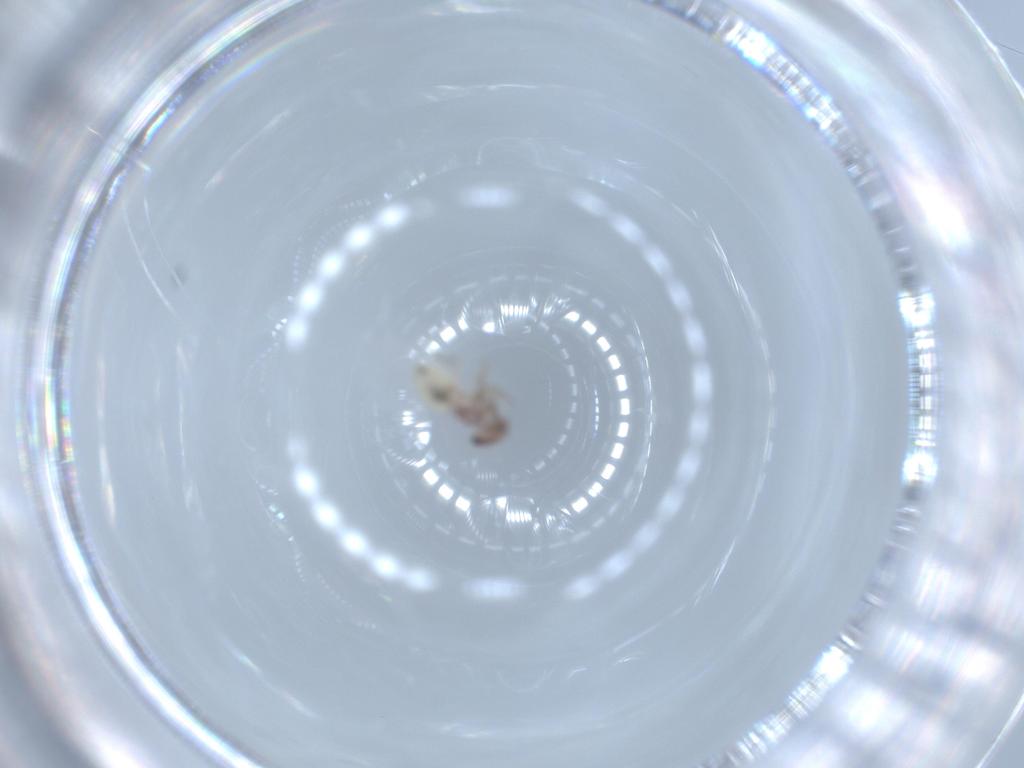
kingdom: Animalia
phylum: Arthropoda
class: Insecta
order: Psocodea
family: Lepidopsocidae
